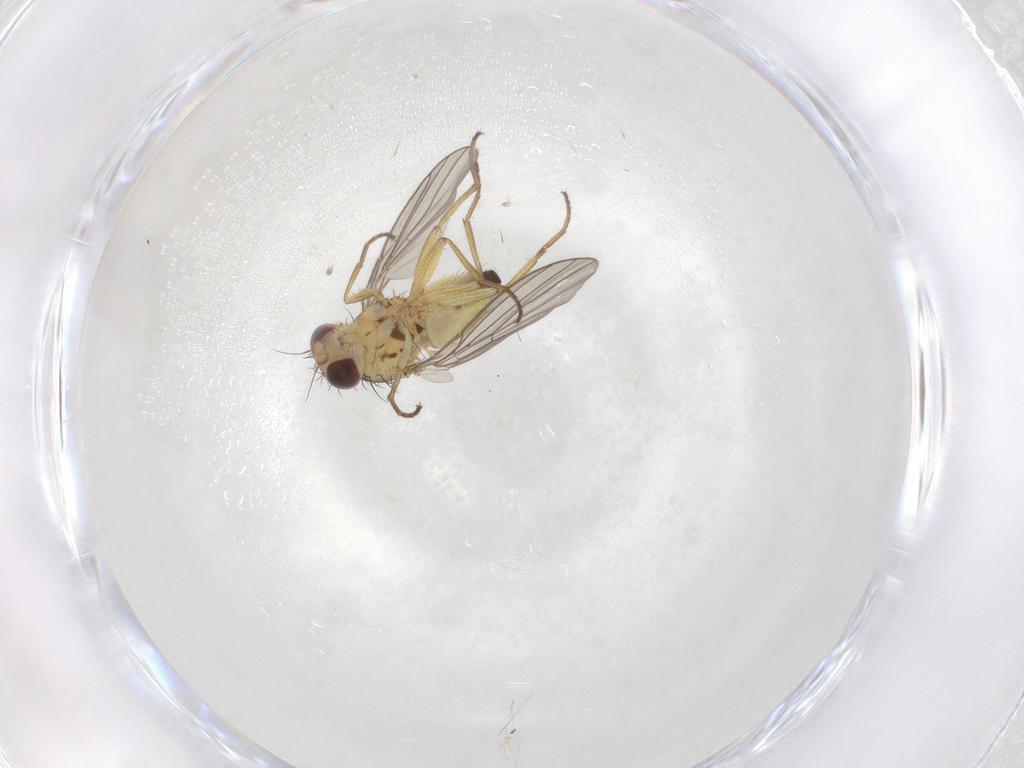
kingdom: Animalia
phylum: Arthropoda
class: Insecta
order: Diptera
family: Agromyzidae
